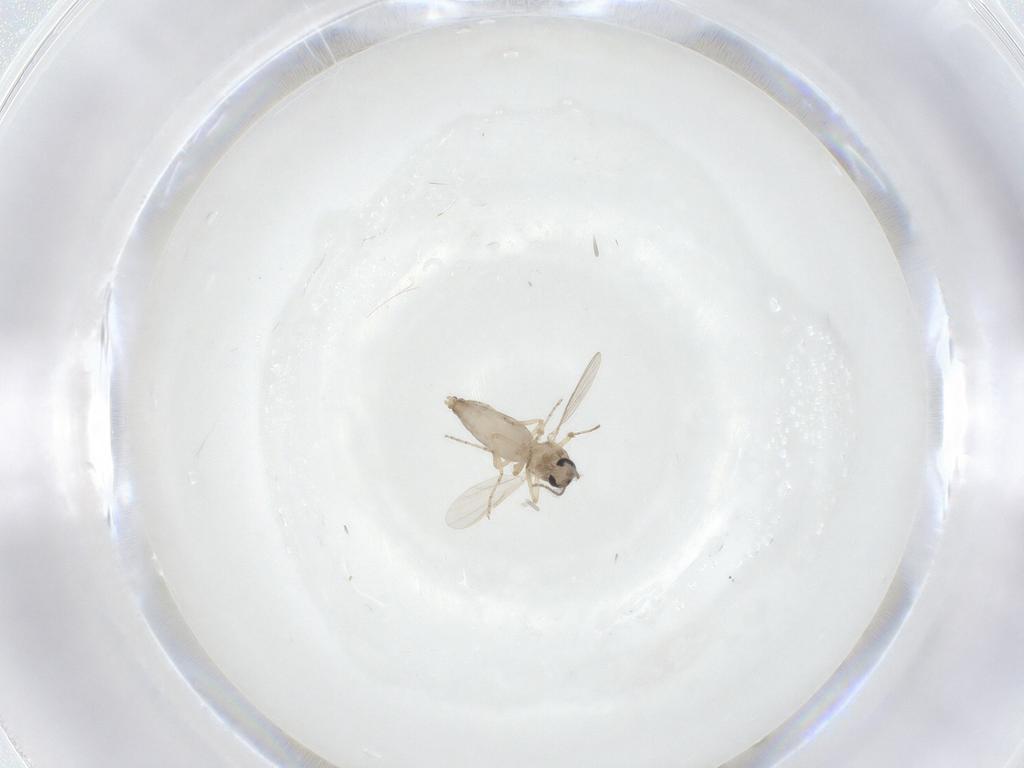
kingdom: Animalia
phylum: Arthropoda
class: Insecta
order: Diptera
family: Ceratopogonidae
